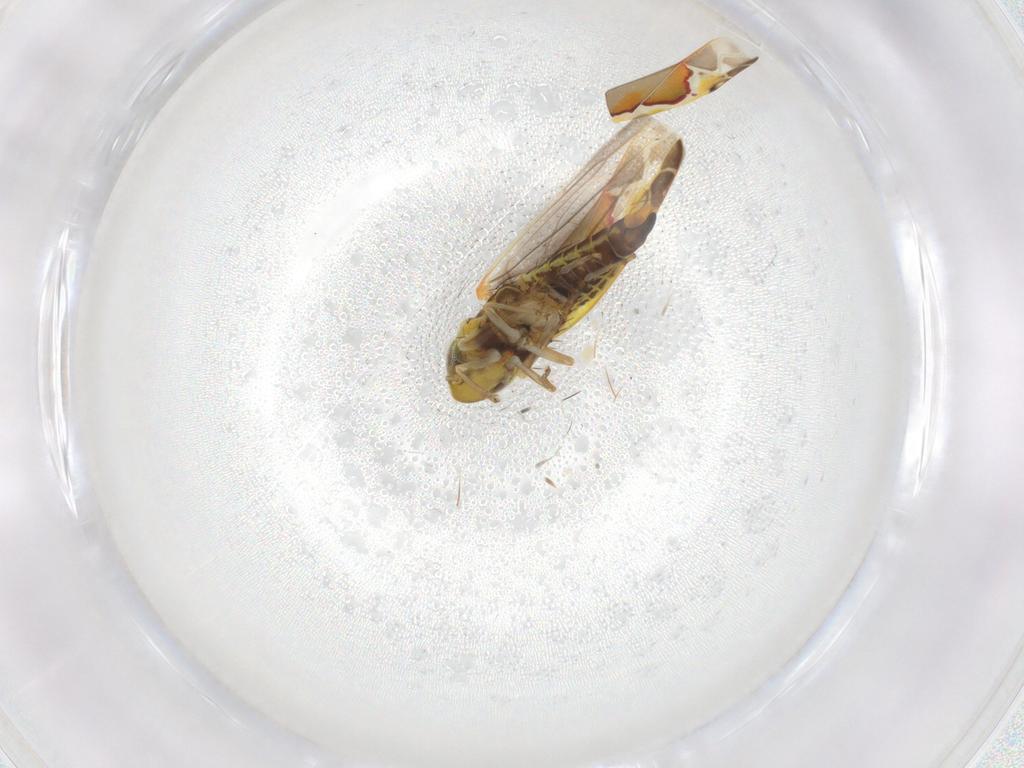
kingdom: Animalia
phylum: Arthropoda
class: Insecta
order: Hemiptera
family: Cicadellidae
